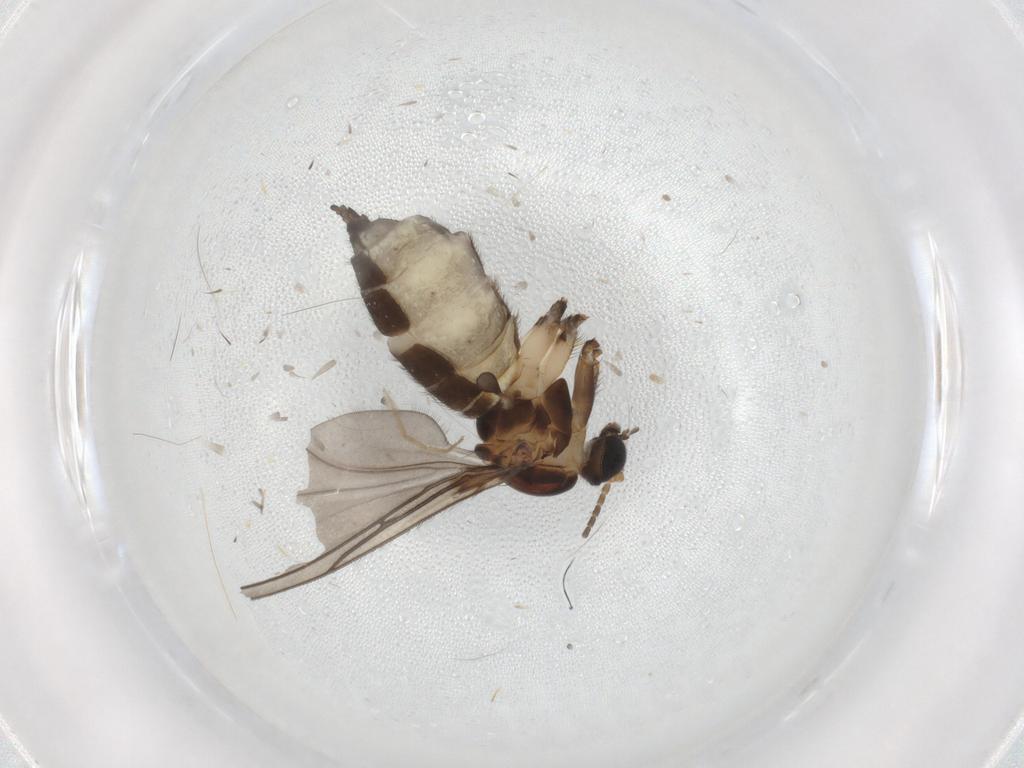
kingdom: Animalia
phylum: Arthropoda
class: Insecta
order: Diptera
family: Sciaridae
